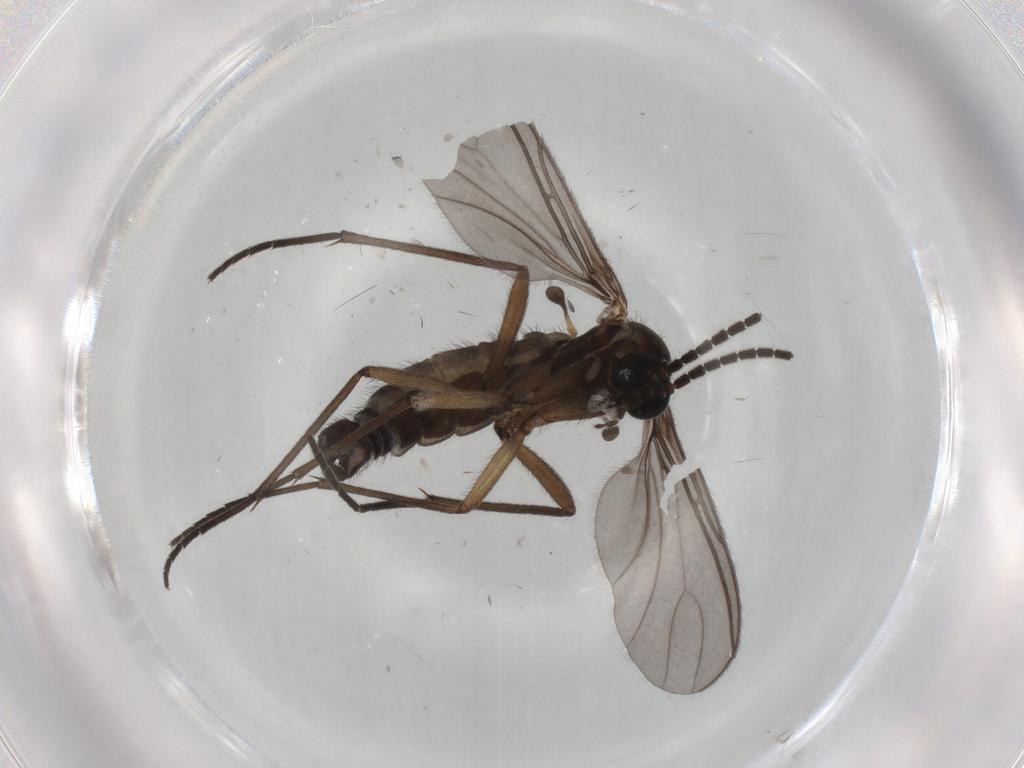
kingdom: Animalia
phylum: Arthropoda
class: Insecta
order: Diptera
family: Sciaridae
